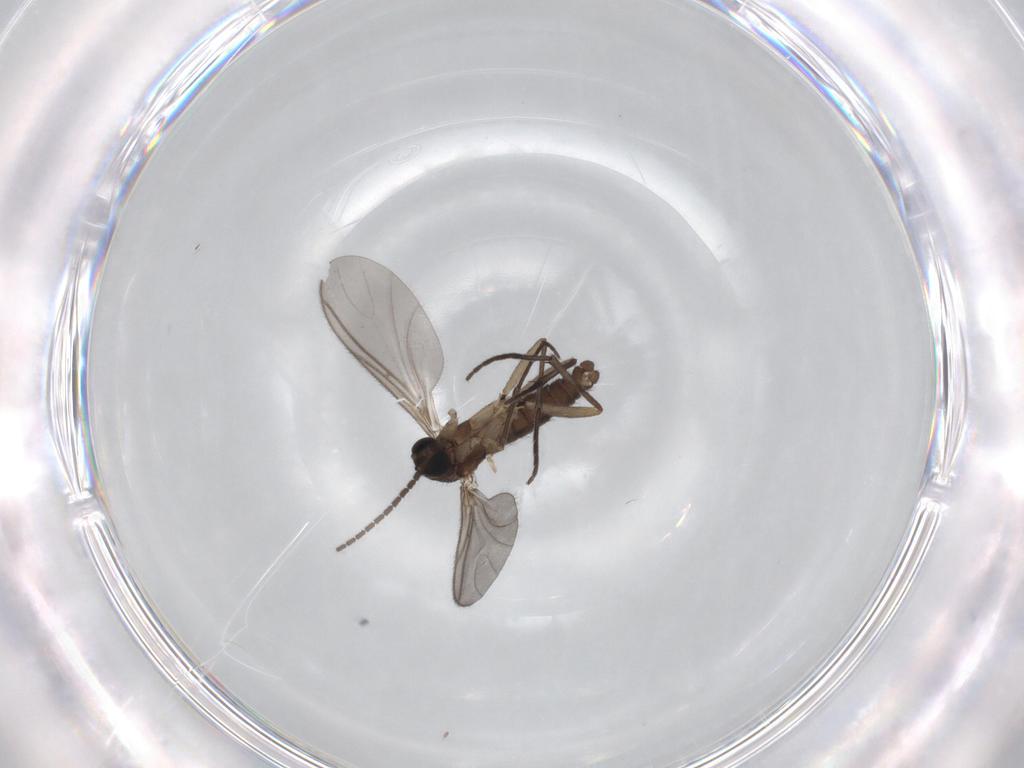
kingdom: Animalia
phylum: Arthropoda
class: Insecta
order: Diptera
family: Sciaridae
